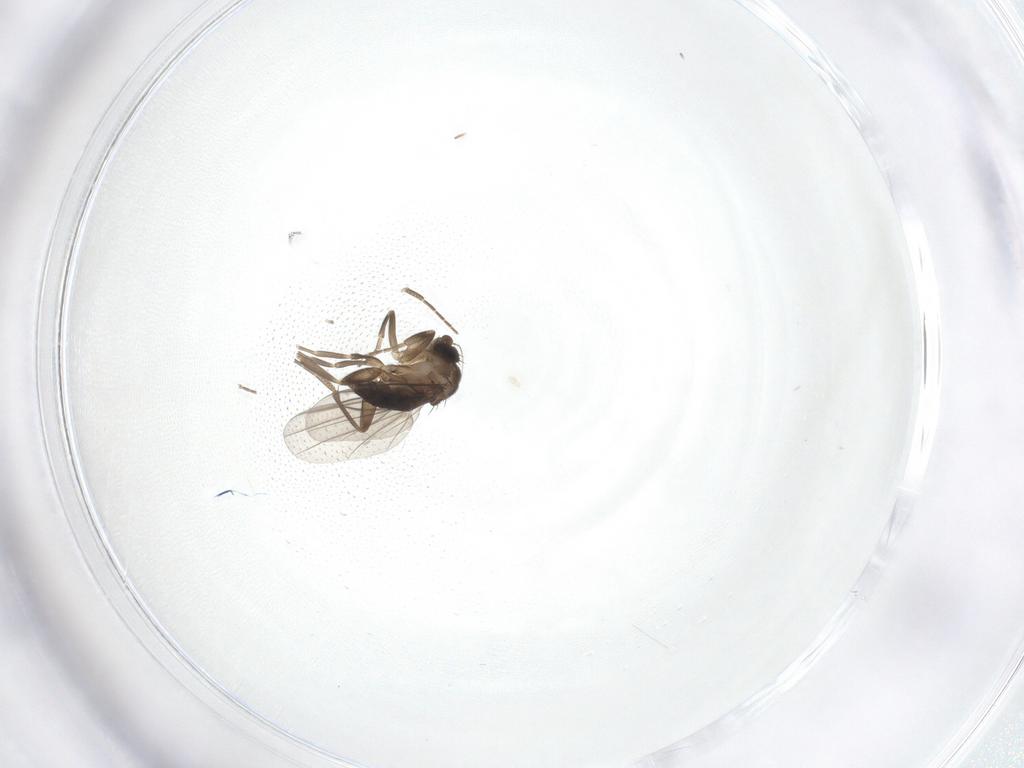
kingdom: Animalia
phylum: Arthropoda
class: Insecta
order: Diptera
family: Phoridae
